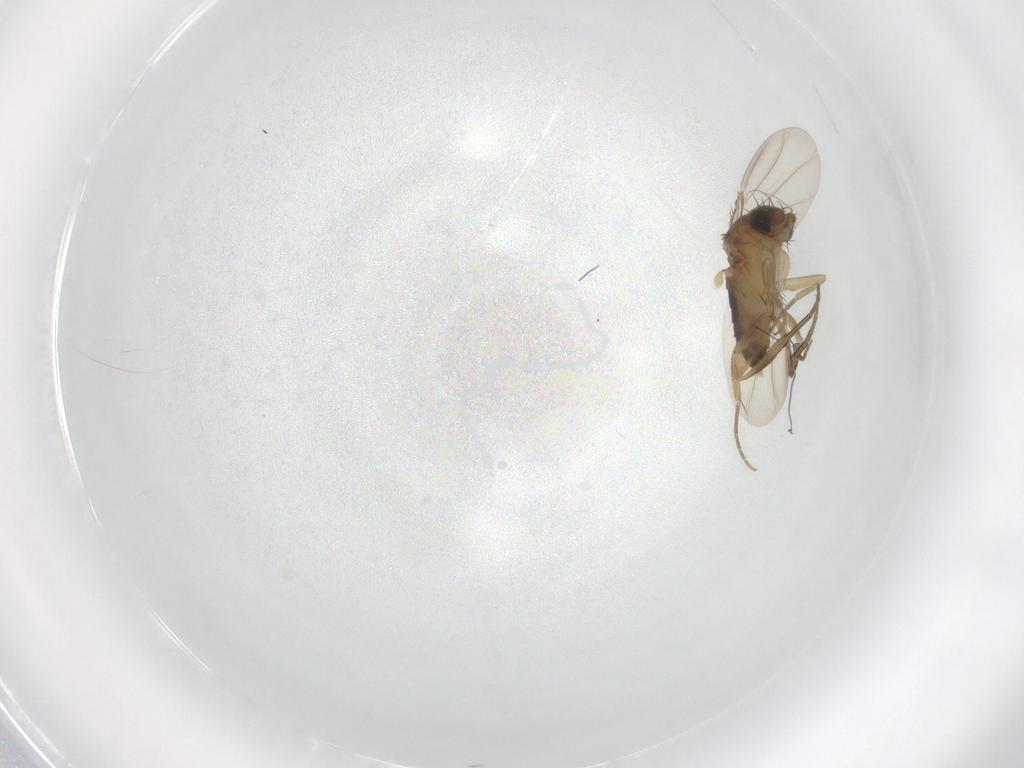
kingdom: Animalia
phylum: Arthropoda
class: Insecta
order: Diptera
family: Phoridae
